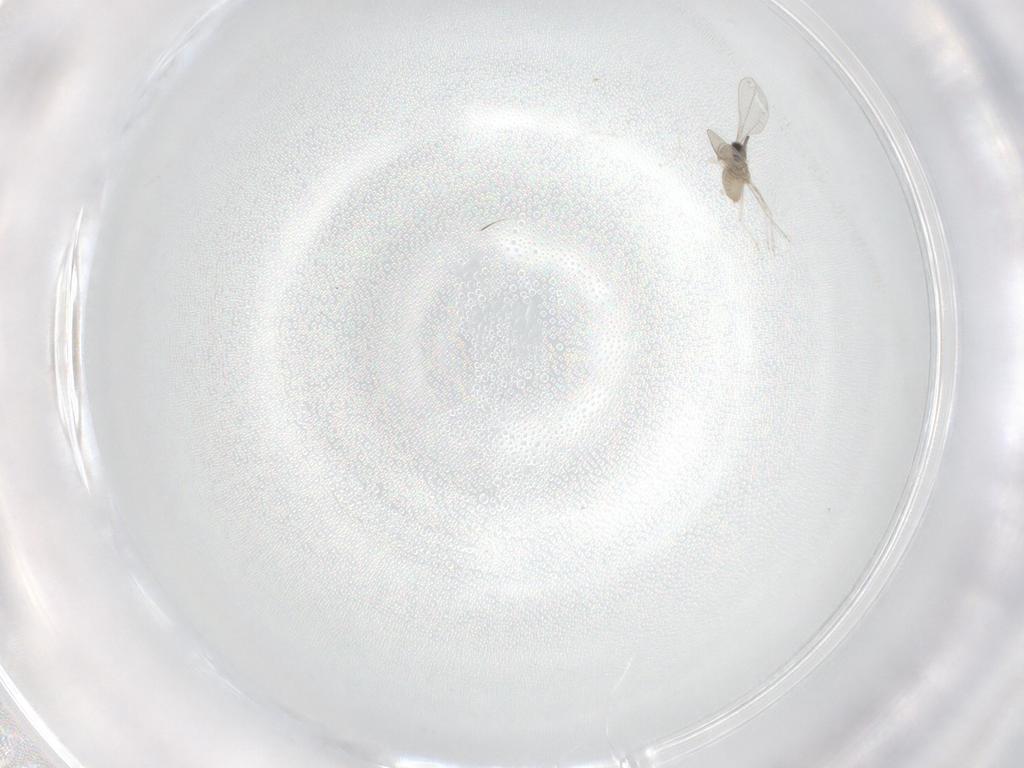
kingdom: Animalia
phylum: Arthropoda
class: Insecta
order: Diptera
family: Cecidomyiidae
